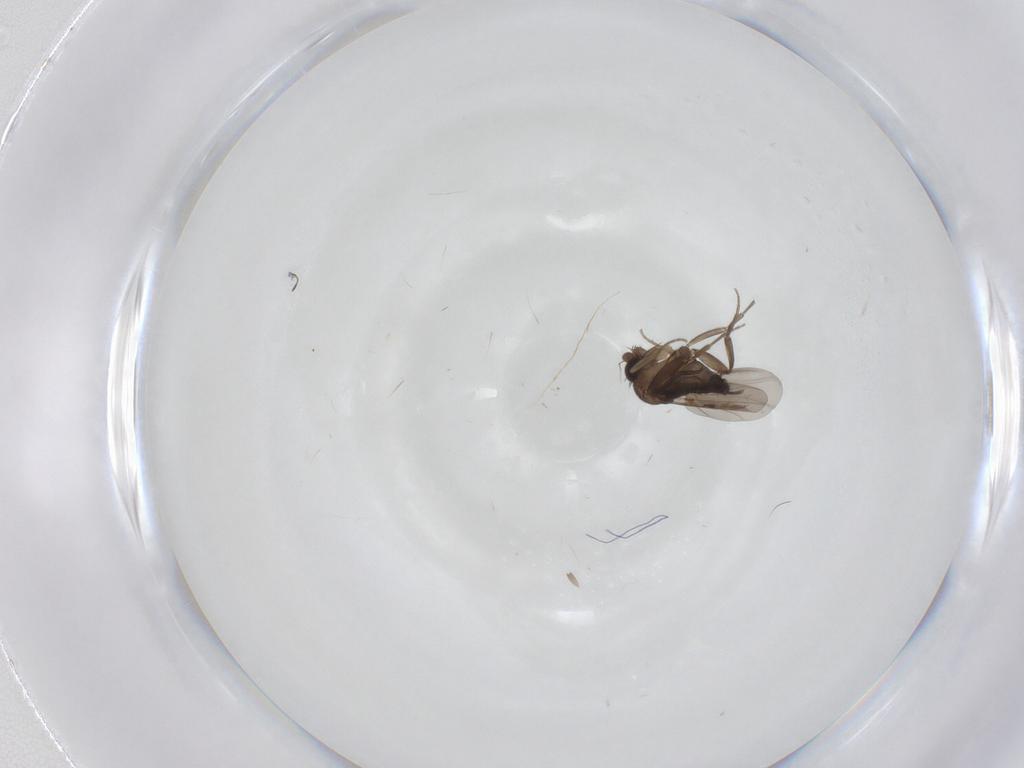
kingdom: Animalia
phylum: Arthropoda
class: Insecta
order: Diptera
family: Phoridae
